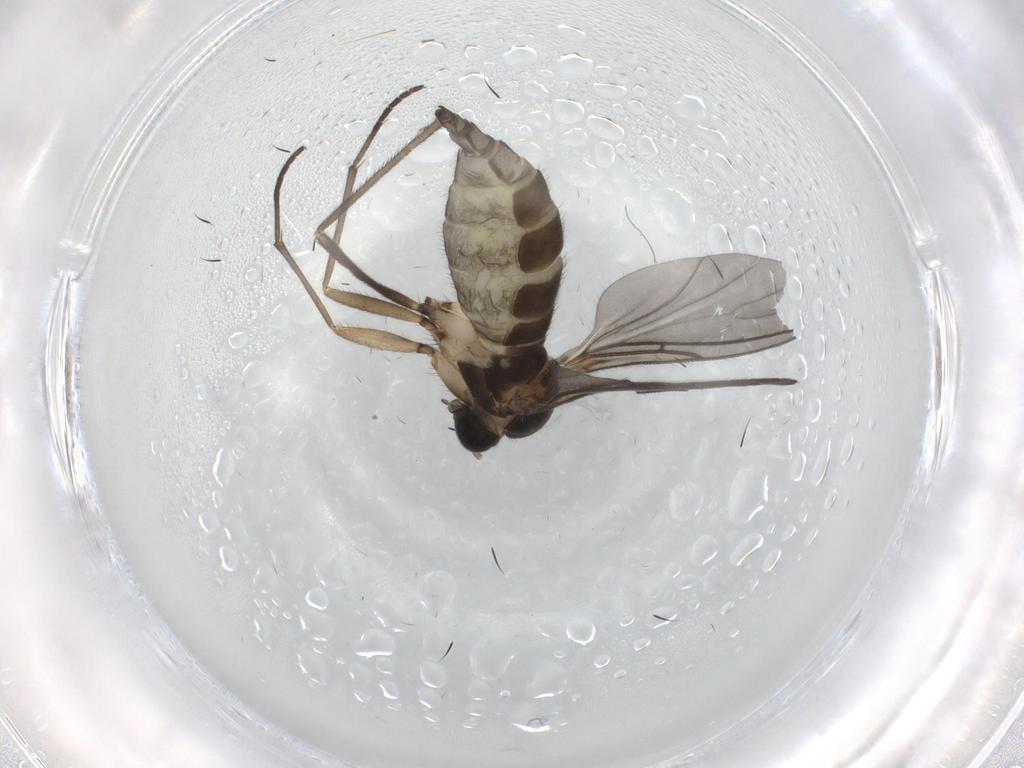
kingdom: Animalia
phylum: Arthropoda
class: Insecta
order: Diptera
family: Sciaridae
